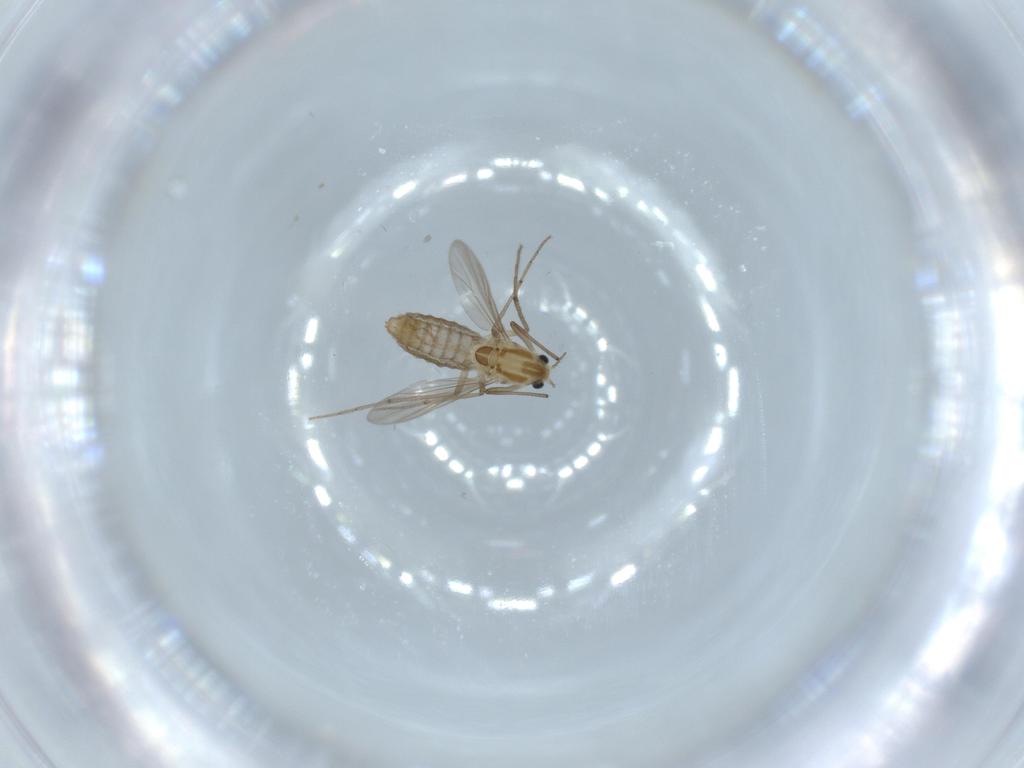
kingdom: Animalia
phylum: Arthropoda
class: Insecta
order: Diptera
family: Chironomidae
